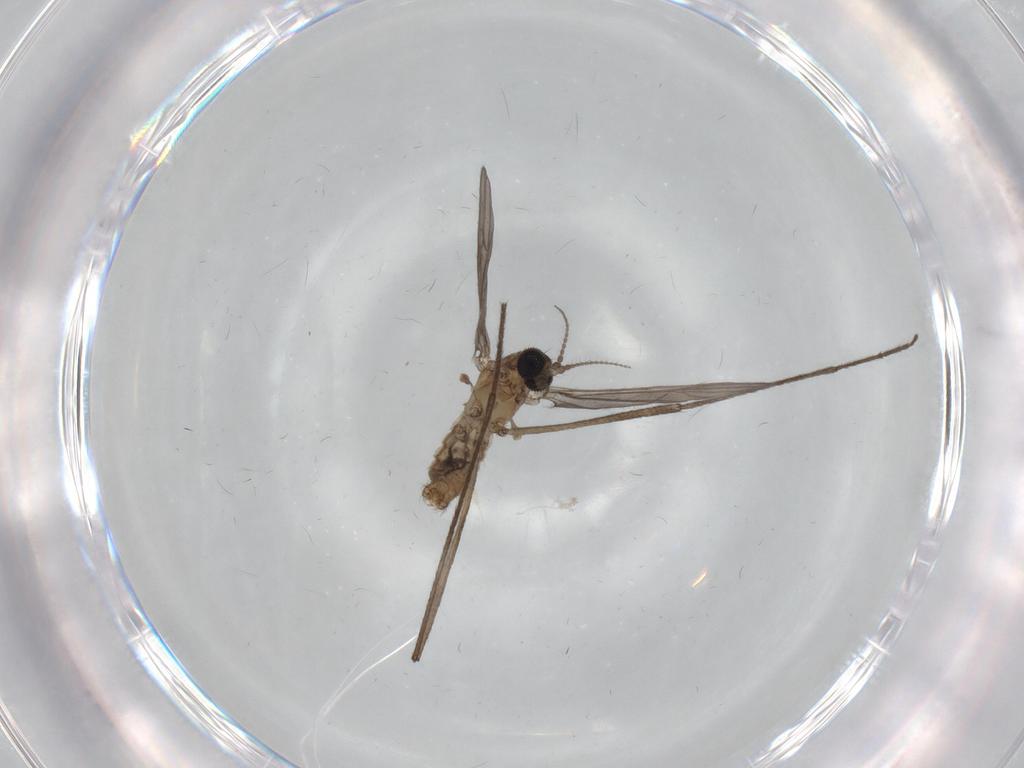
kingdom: Animalia
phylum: Arthropoda
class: Insecta
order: Diptera
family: Limoniidae
